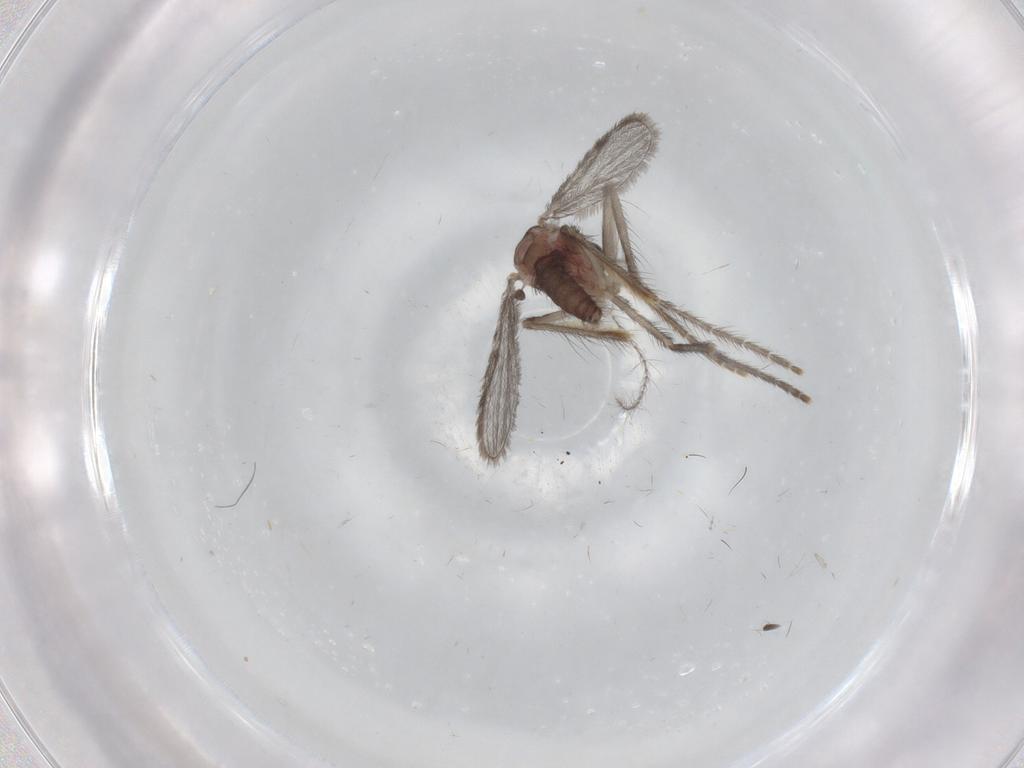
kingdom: Animalia
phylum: Arthropoda
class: Insecta
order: Diptera
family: Corethrellidae
